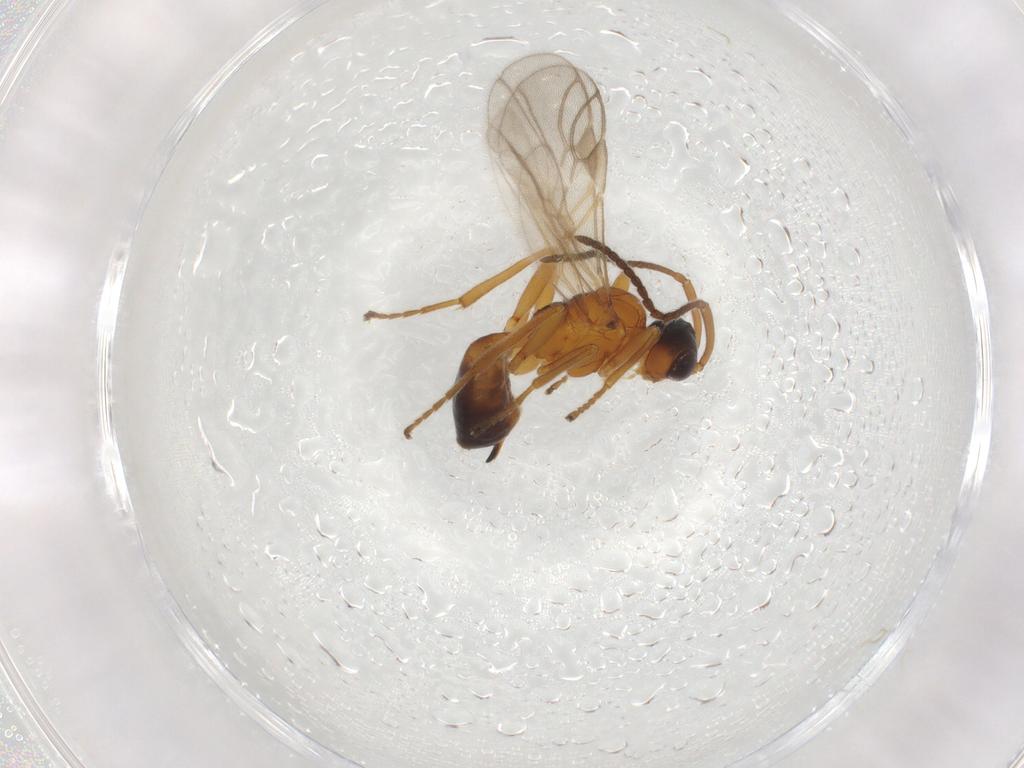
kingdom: Animalia
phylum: Arthropoda
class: Insecta
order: Hymenoptera
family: Braconidae
